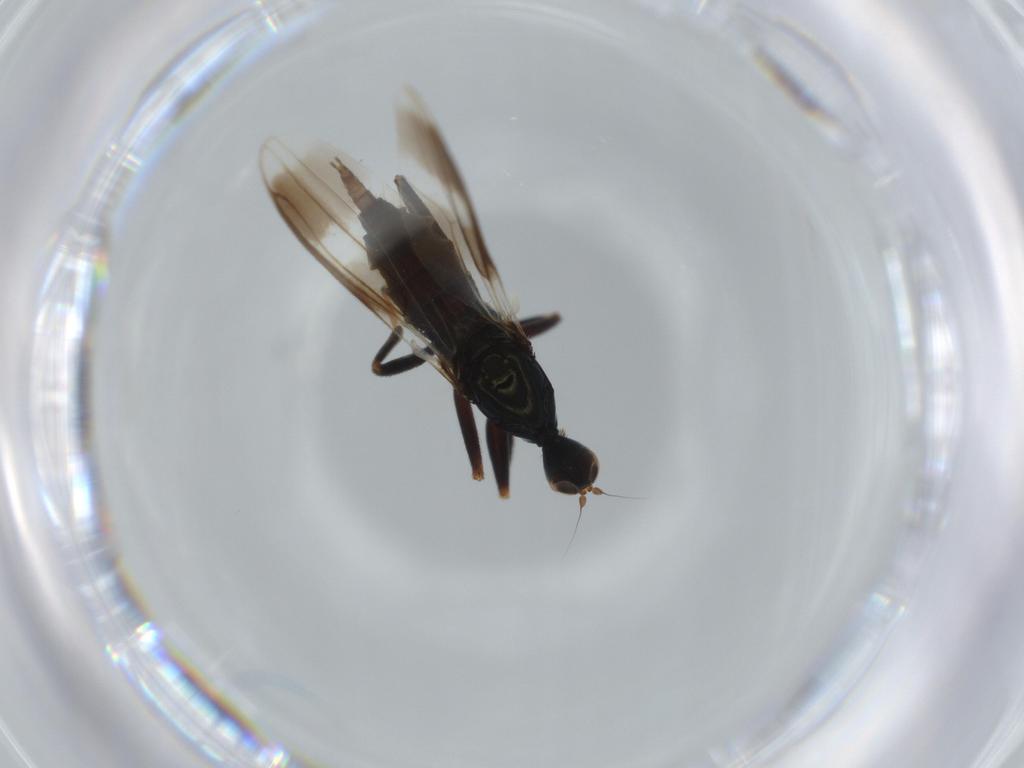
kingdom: Animalia
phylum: Arthropoda
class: Insecta
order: Diptera
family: Hybotidae
